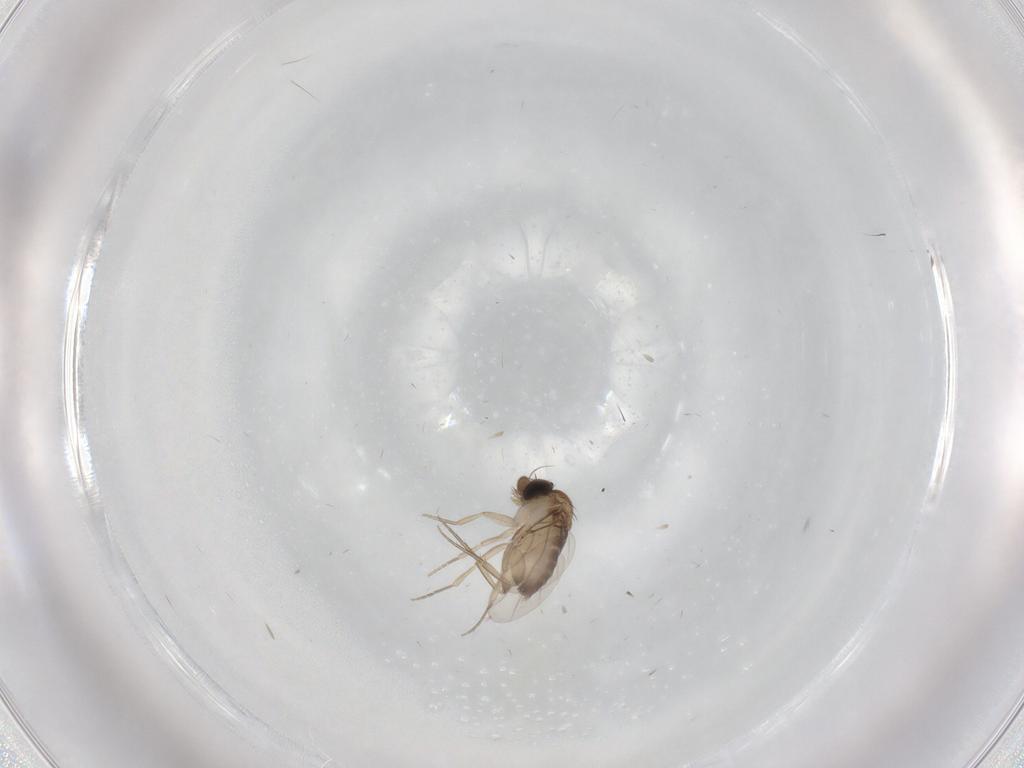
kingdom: Animalia
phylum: Arthropoda
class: Insecta
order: Diptera
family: Phoridae
